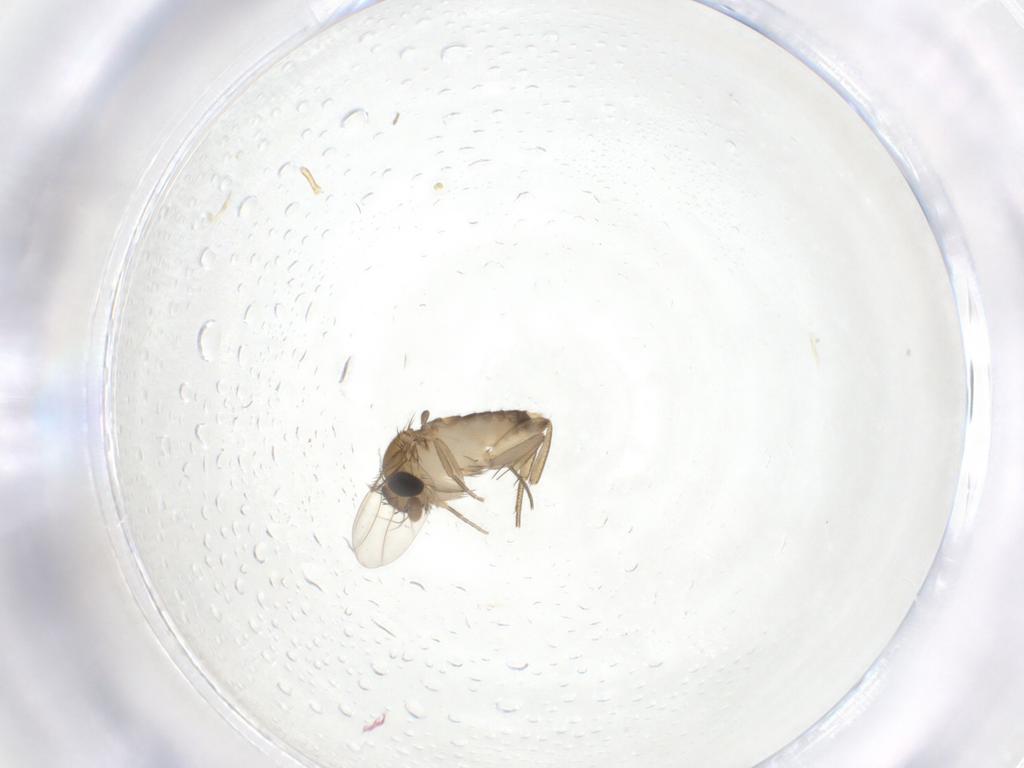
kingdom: Animalia
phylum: Arthropoda
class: Insecta
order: Diptera
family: Phoridae
